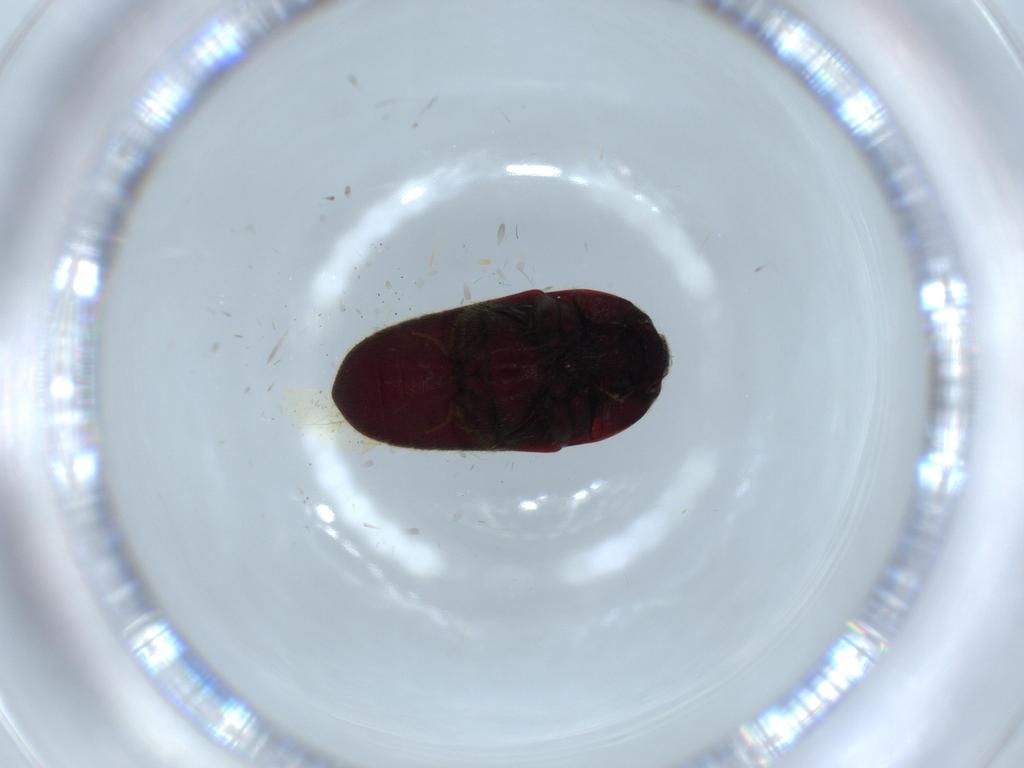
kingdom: Animalia
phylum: Arthropoda
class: Insecta
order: Coleoptera
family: Throscidae
